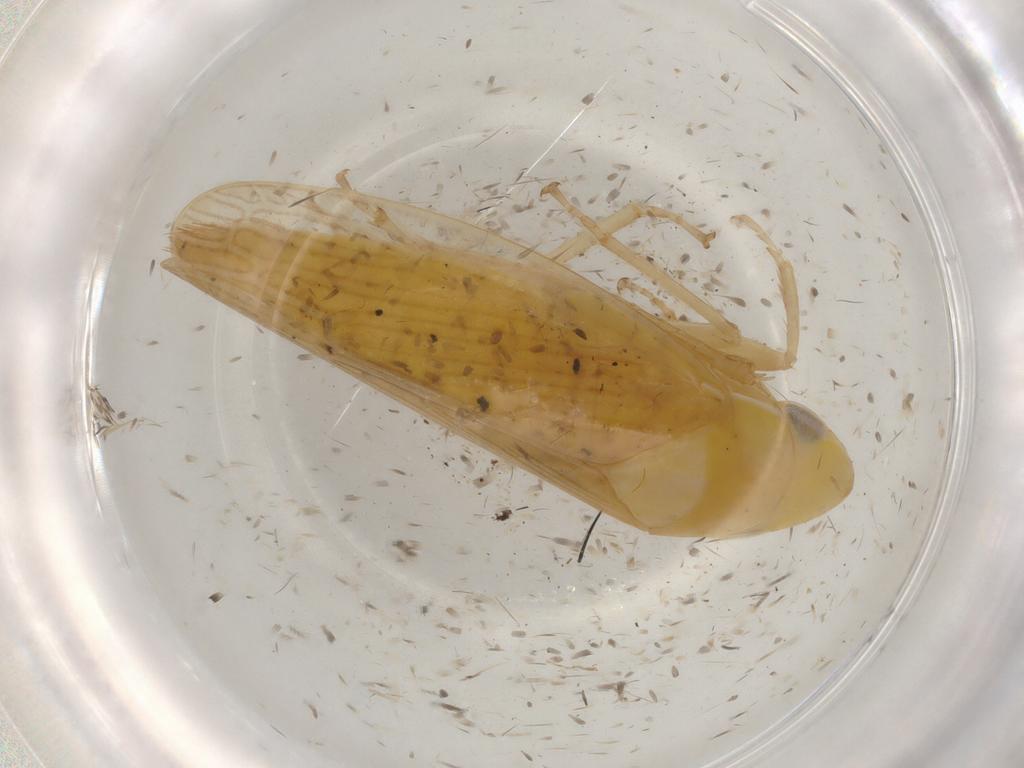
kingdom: Animalia
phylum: Arthropoda
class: Insecta
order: Hemiptera
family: Cicadellidae
